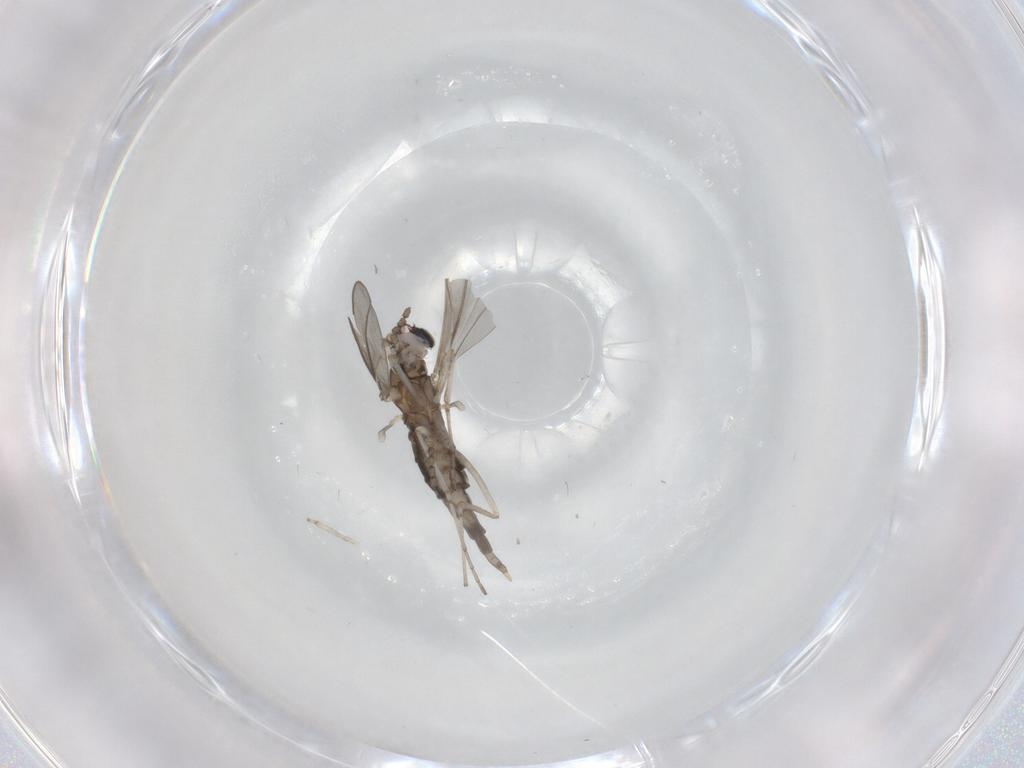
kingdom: Animalia
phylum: Arthropoda
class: Insecta
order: Diptera
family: Cecidomyiidae
